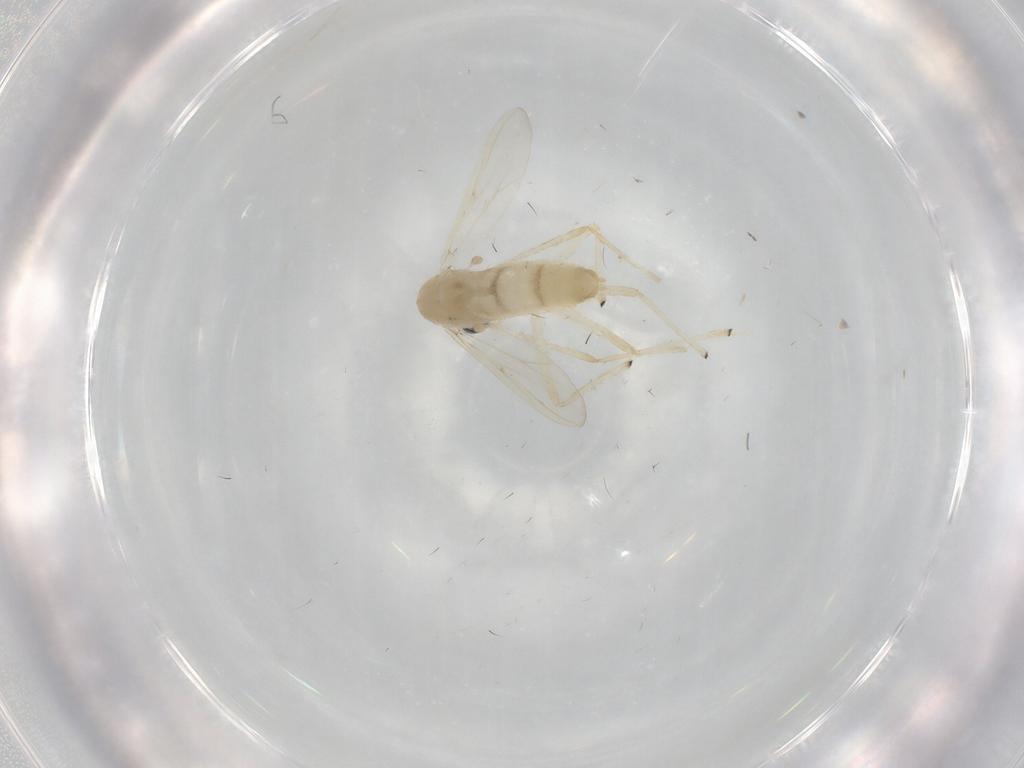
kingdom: Animalia
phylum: Arthropoda
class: Insecta
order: Diptera
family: Chironomidae
